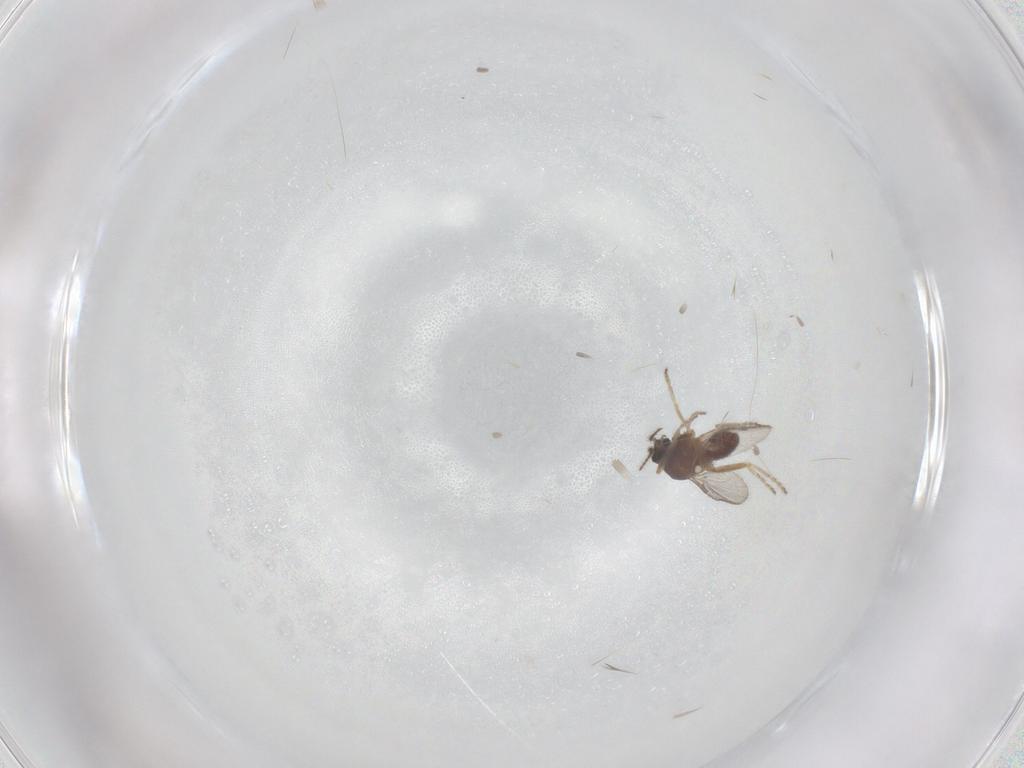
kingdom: Animalia
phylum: Arthropoda
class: Insecta
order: Diptera
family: Ceratopogonidae
